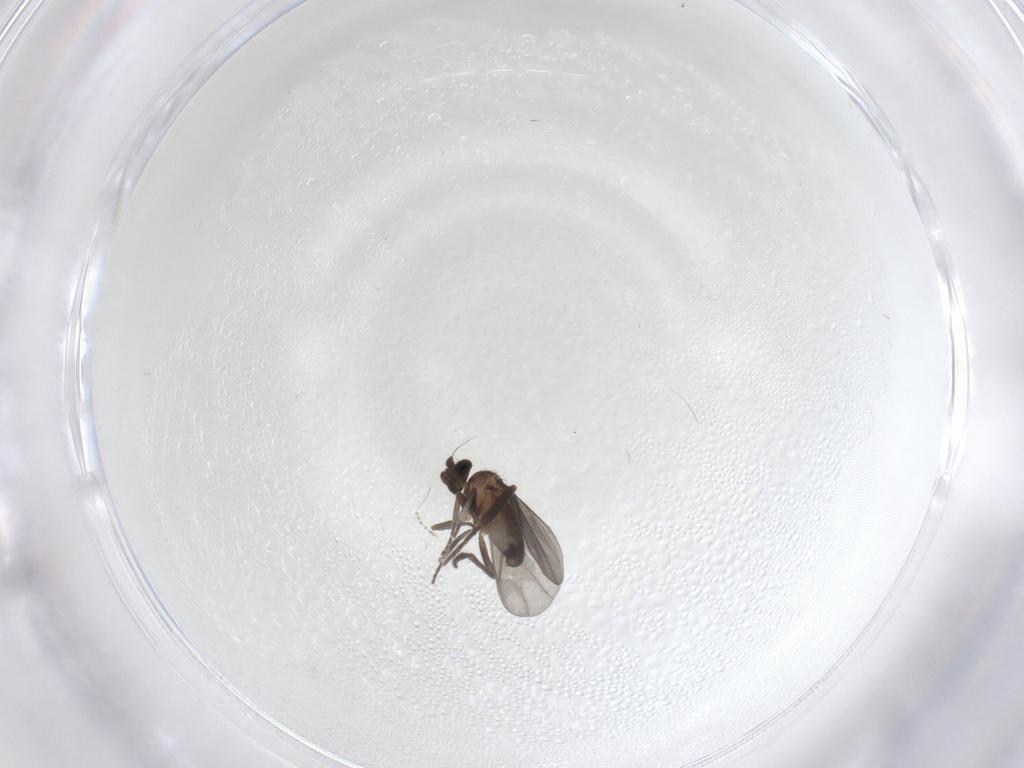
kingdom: Animalia
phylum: Arthropoda
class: Insecta
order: Diptera
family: Phoridae
